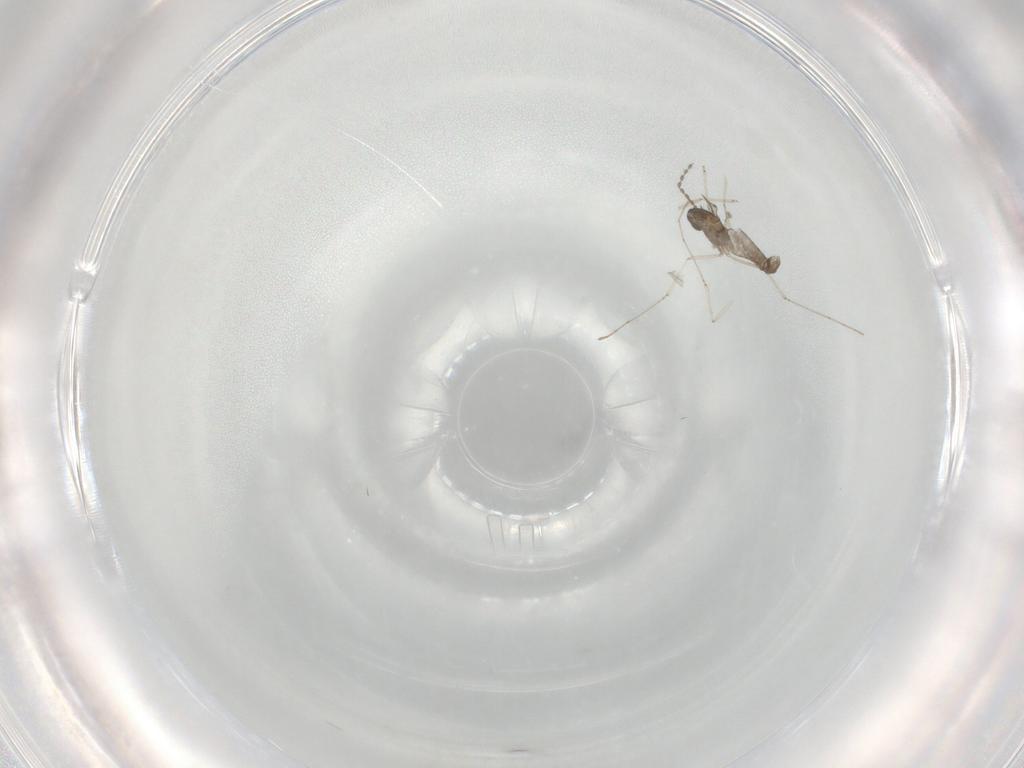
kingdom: Animalia
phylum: Arthropoda
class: Insecta
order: Diptera
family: Cecidomyiidae
